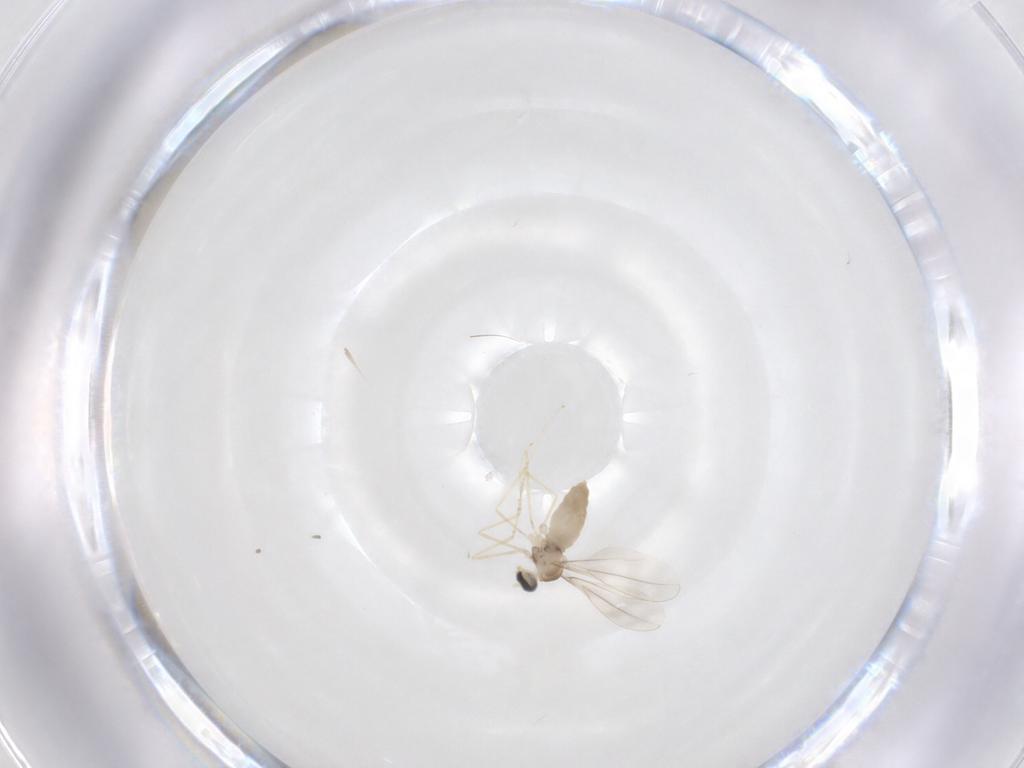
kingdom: Animalia
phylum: Arthropoda
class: Insecta
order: Diptera
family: Cecidomyiidae
